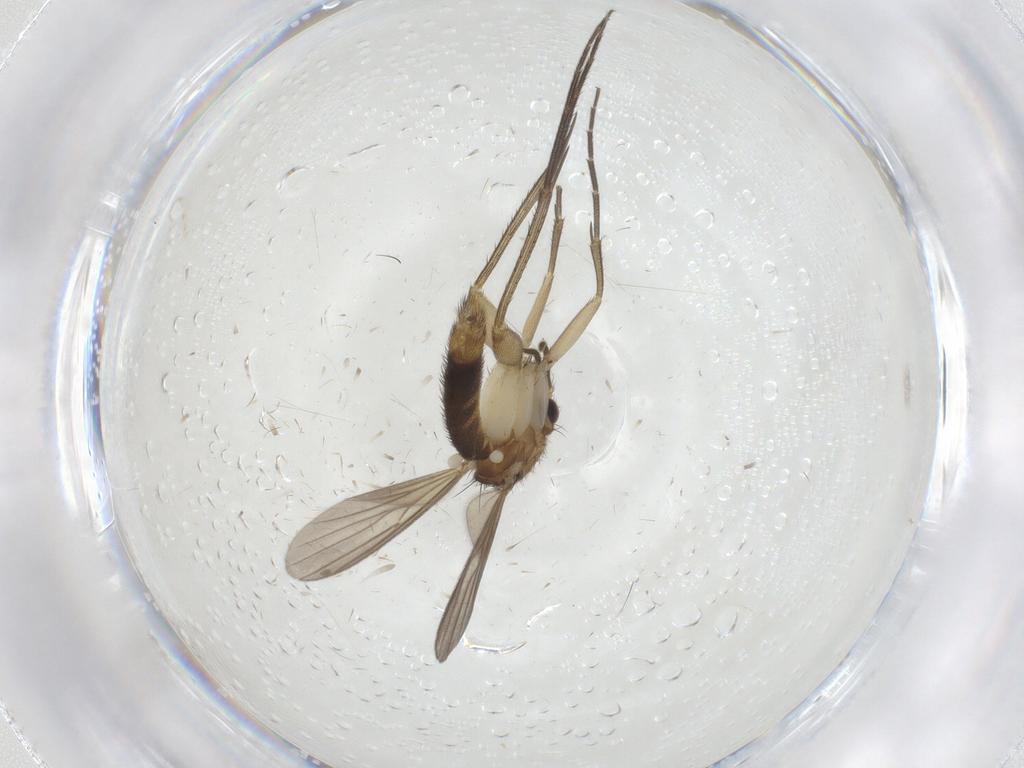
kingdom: Animalia
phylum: Arthropoda
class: Insecta
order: Diptera
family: Mycetophilidae
